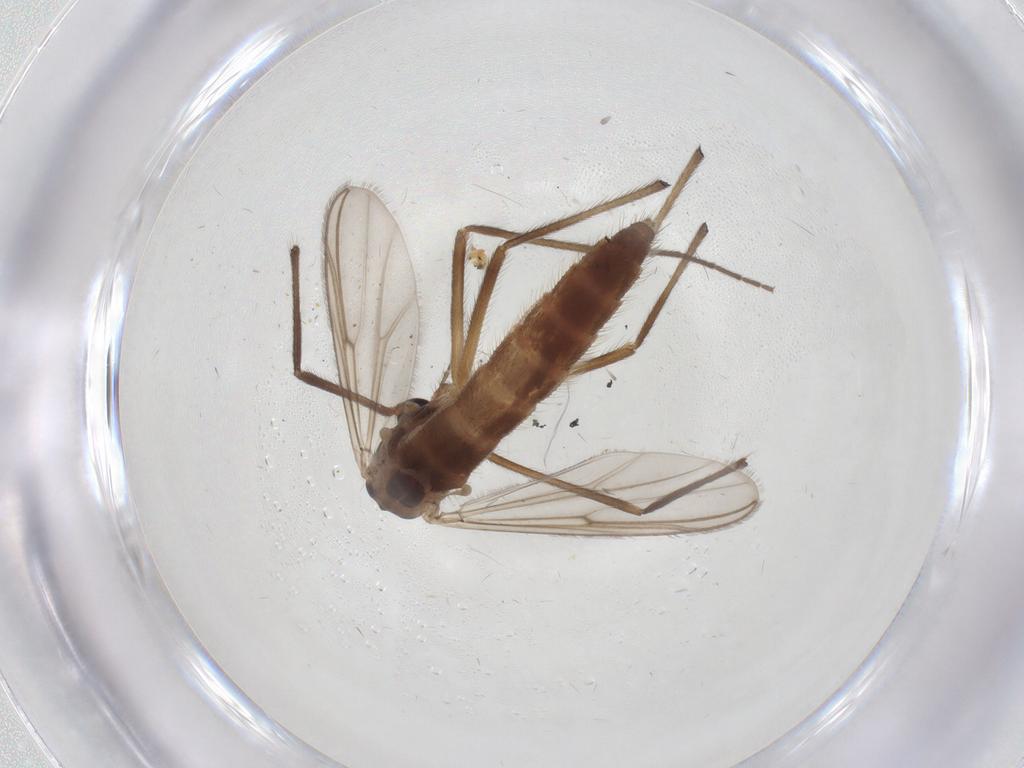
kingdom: Animalia
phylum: Arthropoda
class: Insecta
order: Diptera
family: Chironomidae
